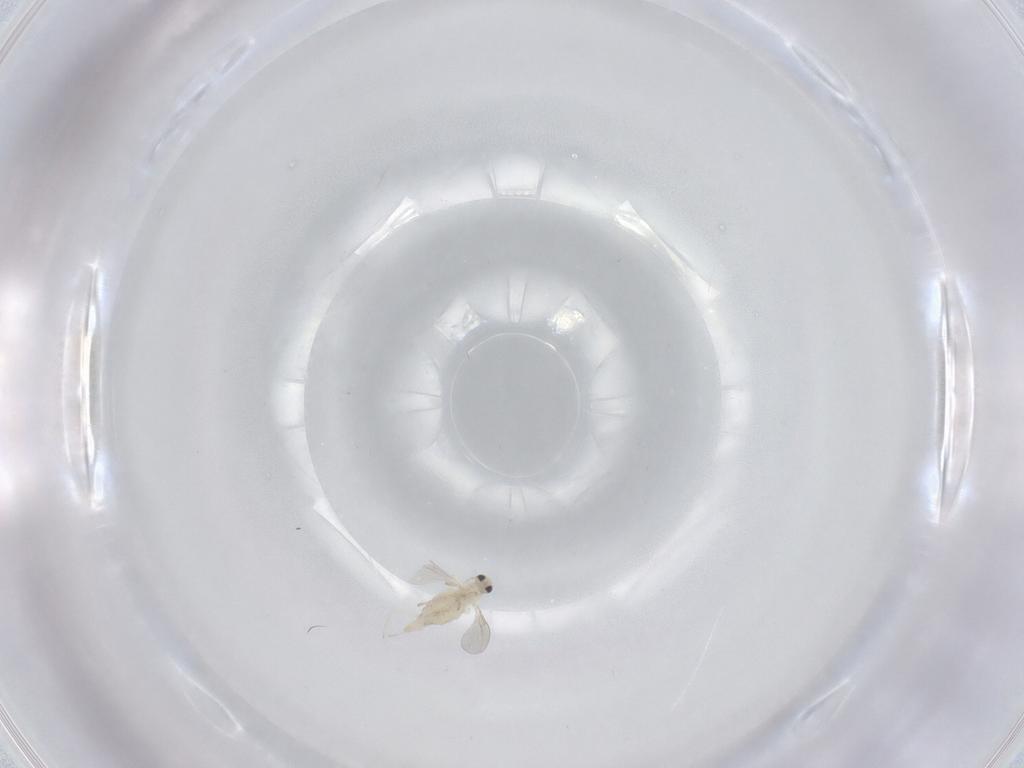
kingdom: Animalia
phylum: Arthropoda
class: Insecta
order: Diptera
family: Cecidomyiidae
